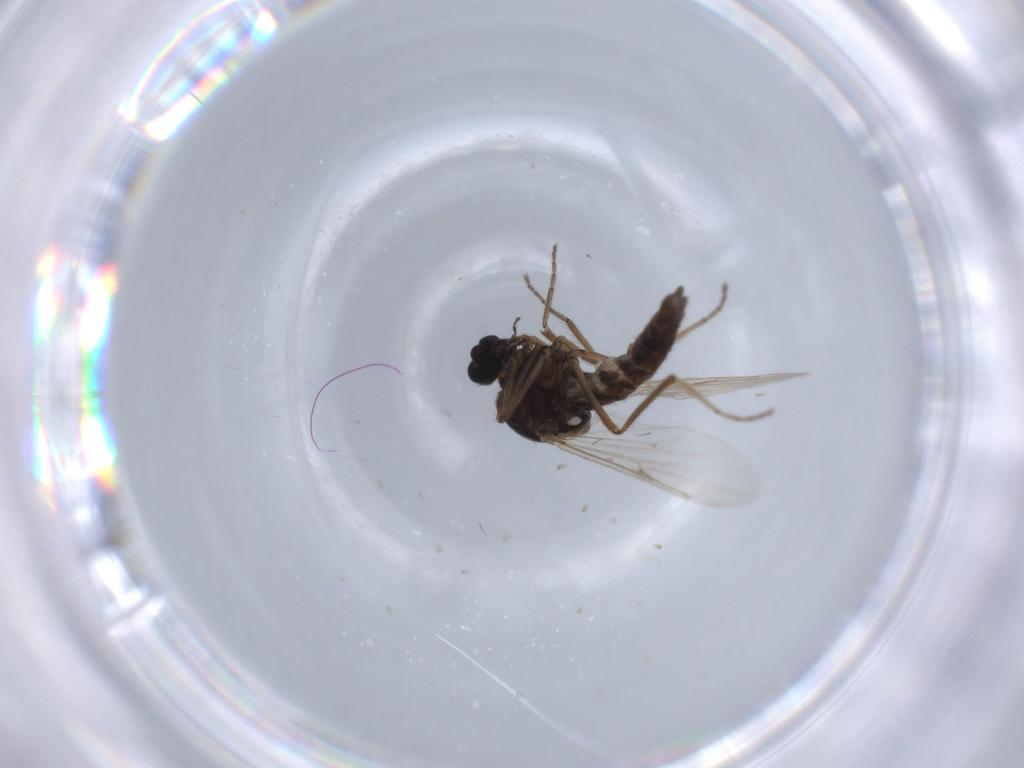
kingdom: Animalia
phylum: Arthropoda
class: Insecta
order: Diptera
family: Ceratopogonidae
